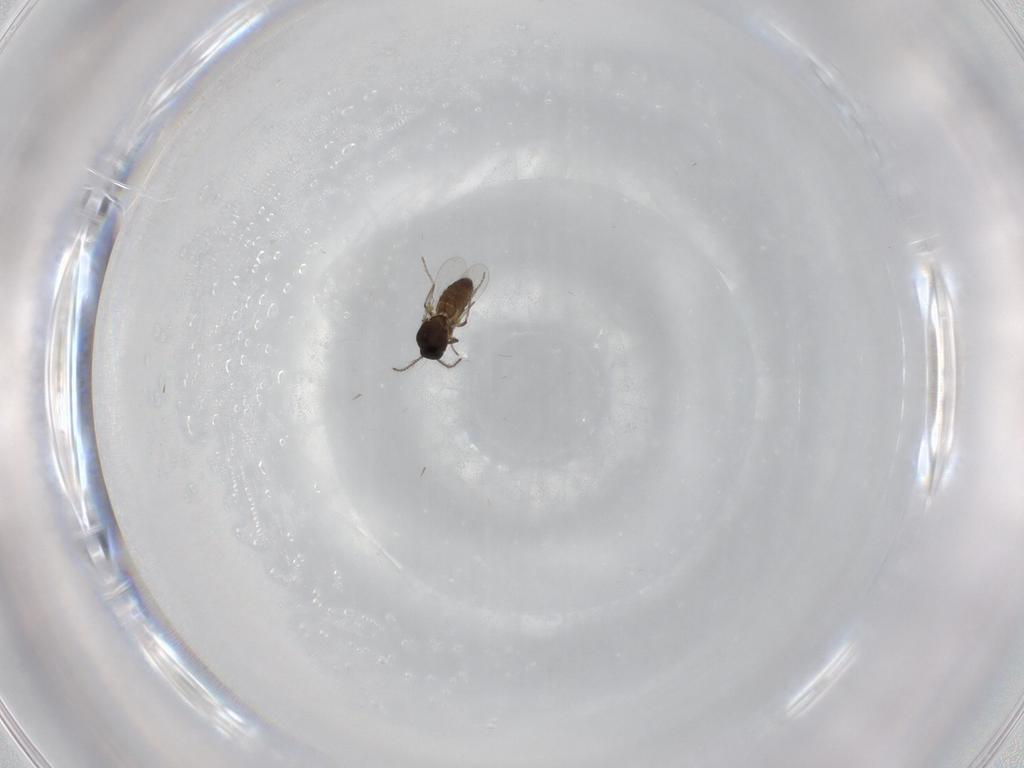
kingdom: Animalia
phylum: Arthropoda
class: Insecta
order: Diptera
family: Ceratopogonidae
